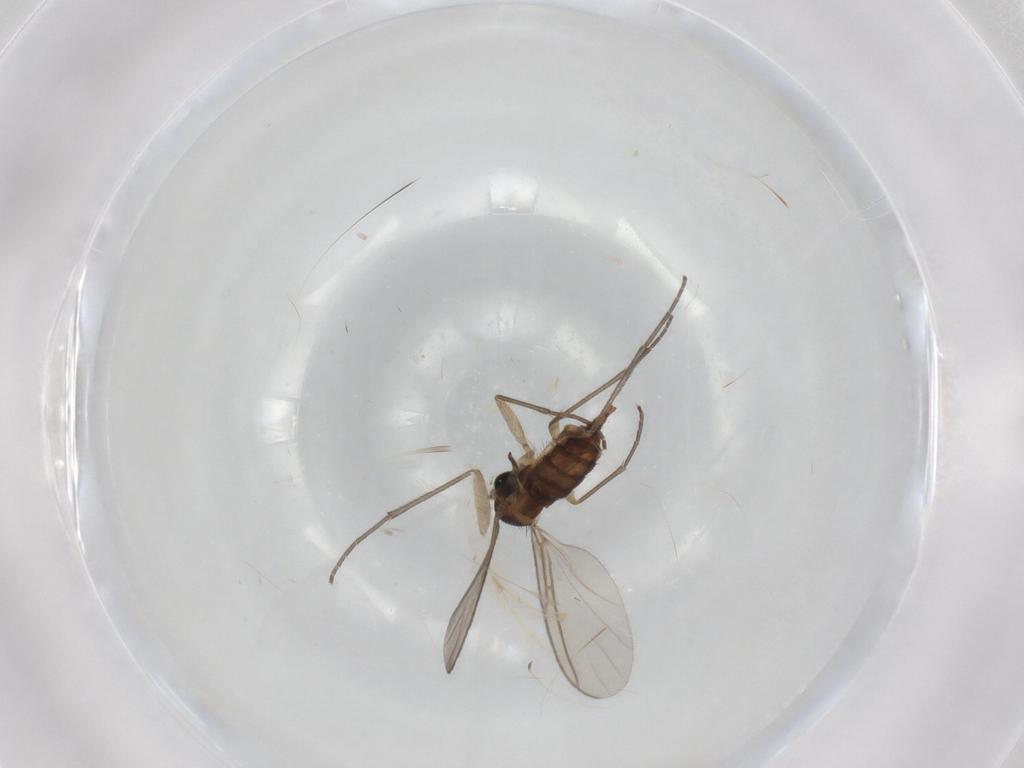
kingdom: Animalia
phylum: Arthropoda
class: Insecta
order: Diptera
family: Sciaridae
